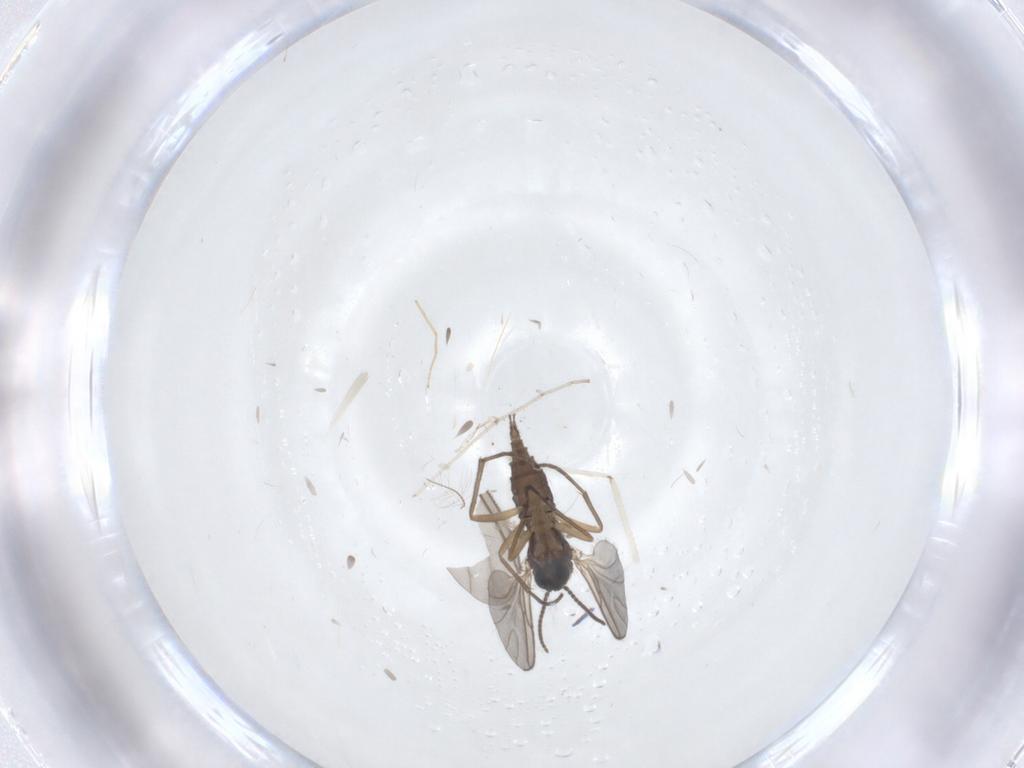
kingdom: Animalia
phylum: Arthropoda
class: Insecta
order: Diptera
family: Sciaridae
